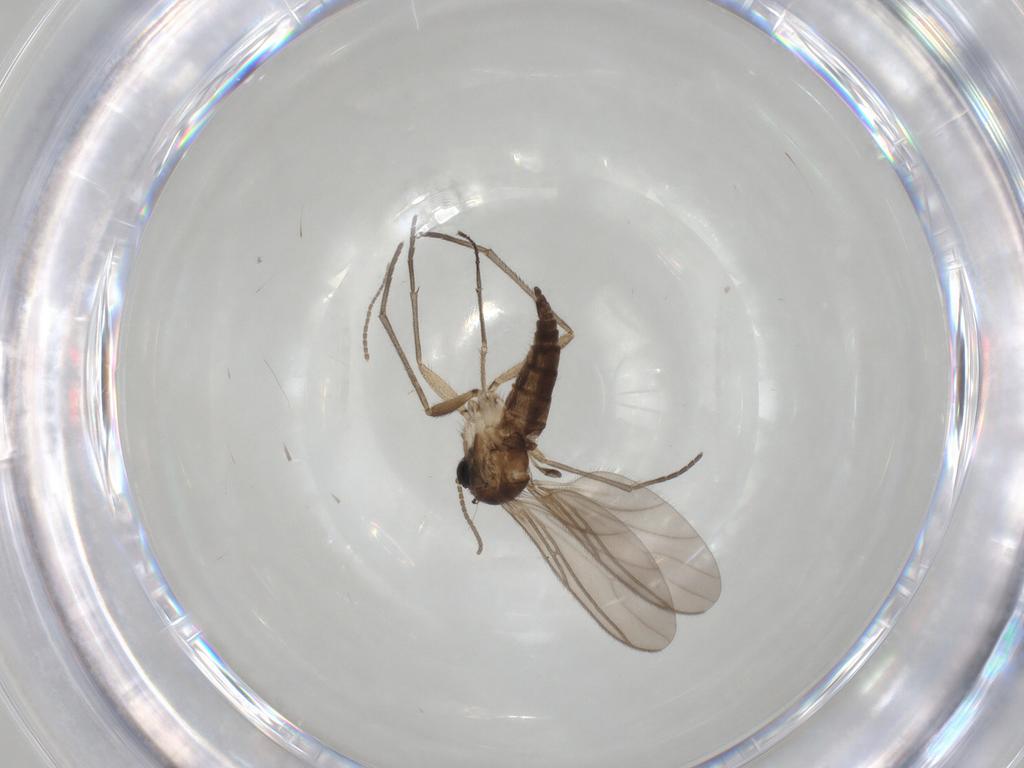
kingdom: Animalia
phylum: Arthropoda
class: Insecta
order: Diptera
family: Sciaridae
